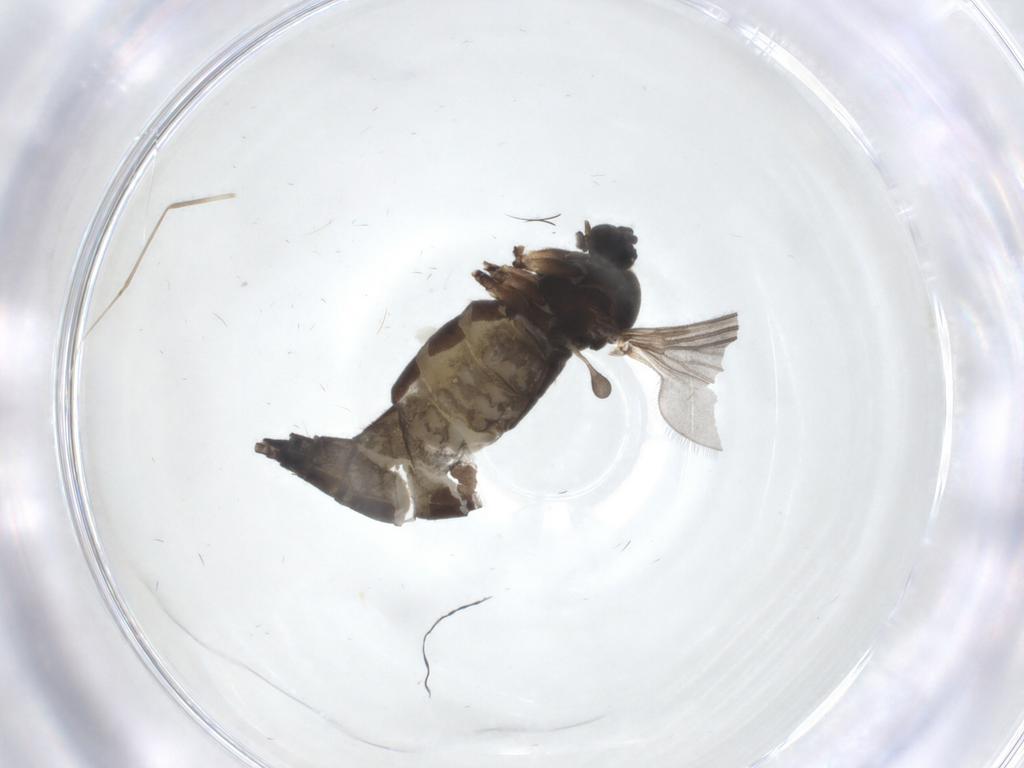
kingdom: Animalia
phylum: Arthropoda
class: Insecta
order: Diptera
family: Sciaridae
